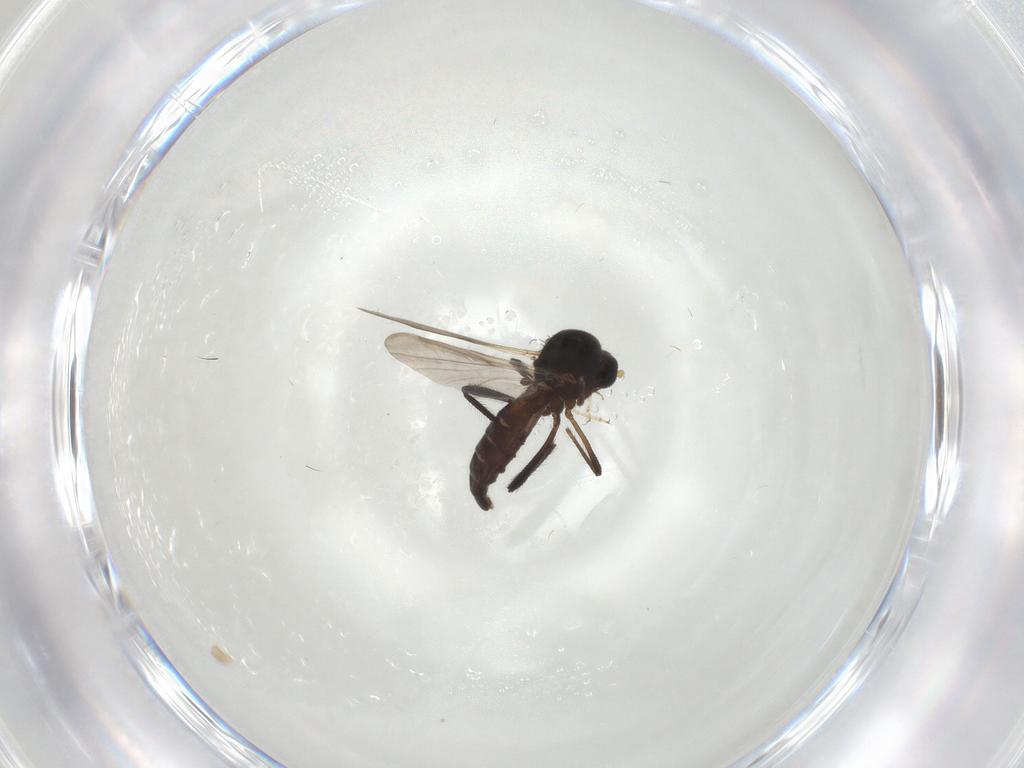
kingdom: Animalia
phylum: Arthropoda
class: Insecta
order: Diptera
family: Ceratopogonidae
